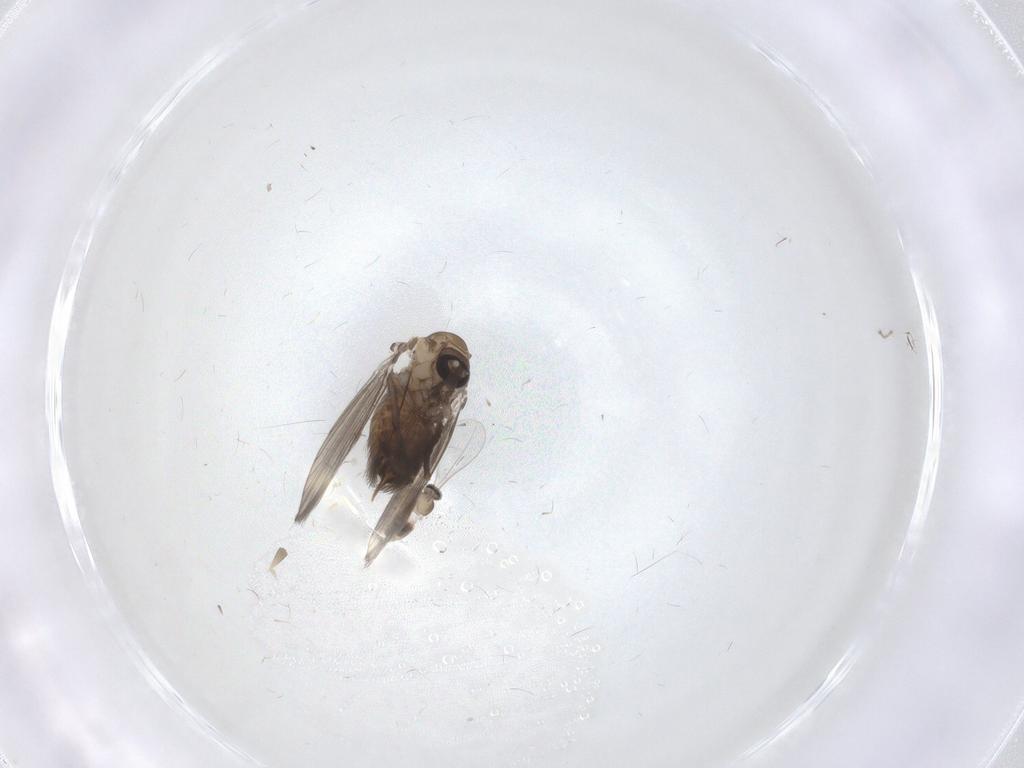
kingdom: Animalia
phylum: Arthropoda
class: Insecta
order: Diptera
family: Cecidomyiidae
